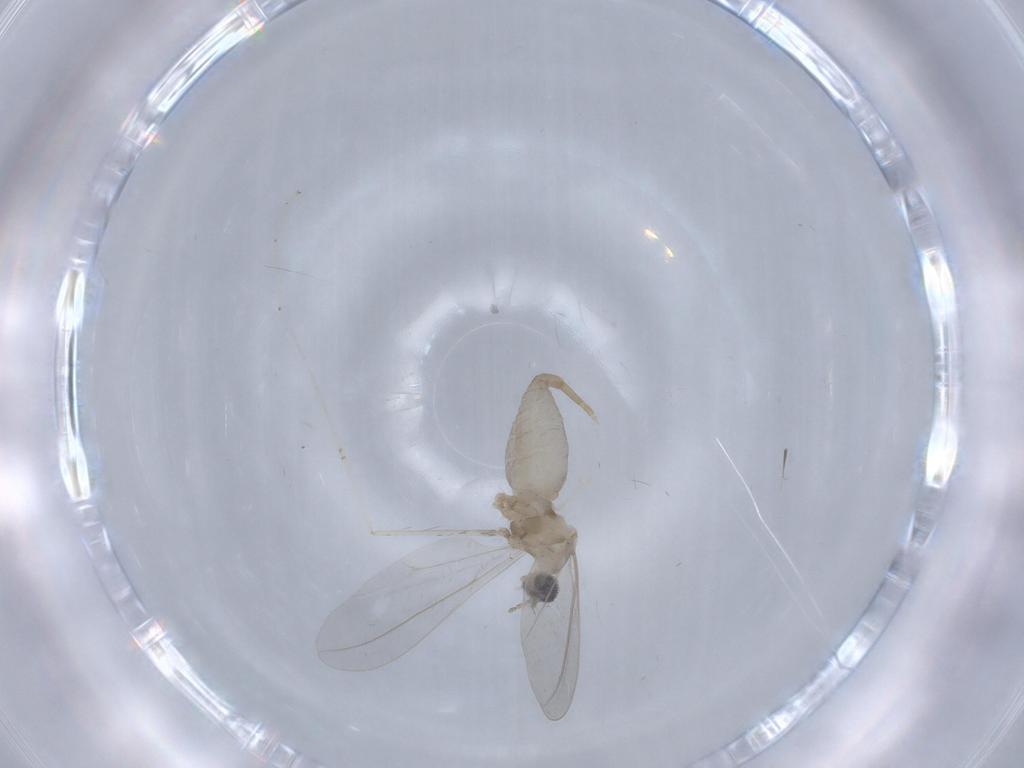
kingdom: Animalia
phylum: Arthropoda
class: Insecta
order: Diptera
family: Cecidomyiidae
